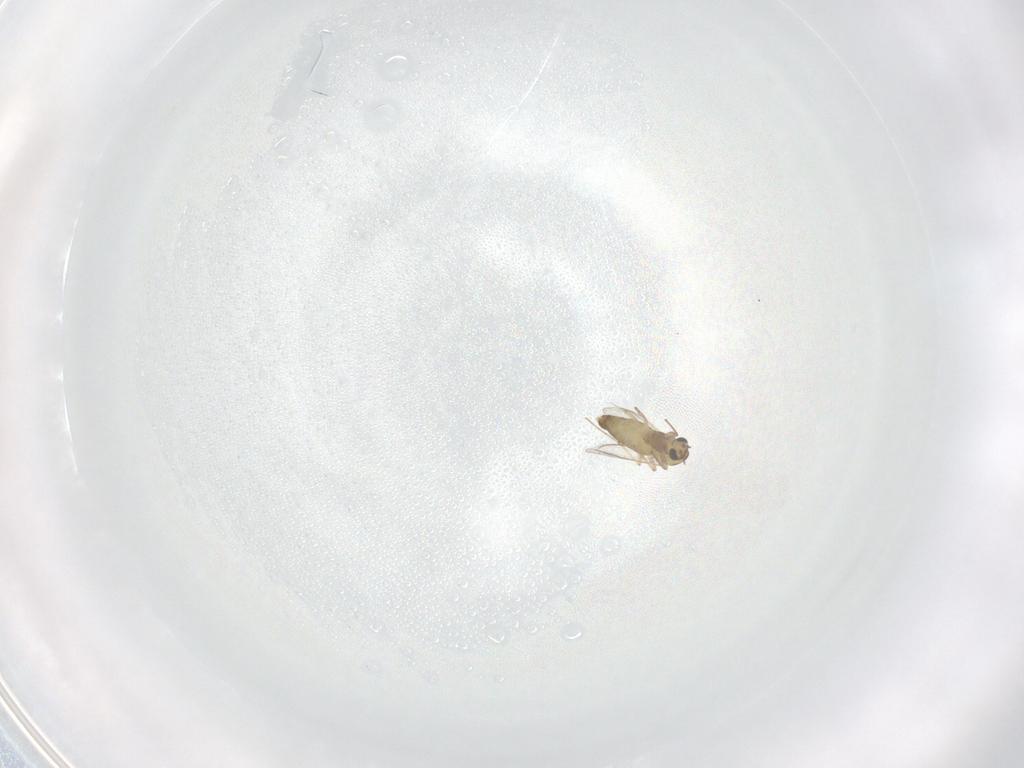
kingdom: Animalia
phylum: Arthropoda
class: Insecta
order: Diptera
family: Chironomidae
